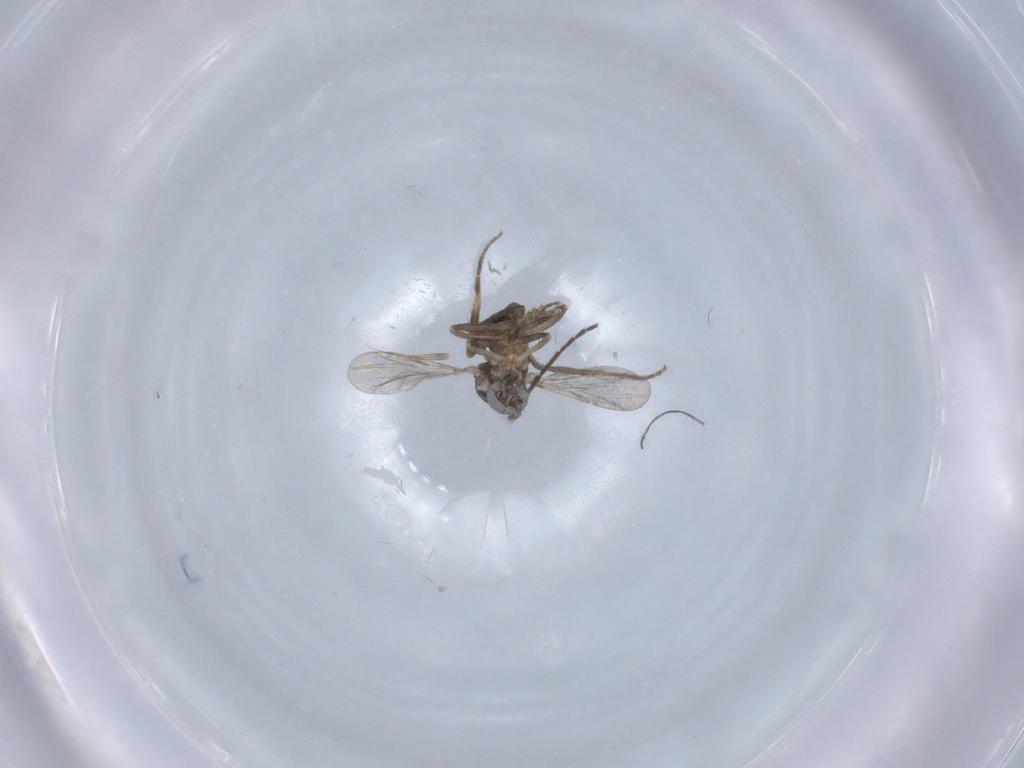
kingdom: Animalia
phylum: Arthropoda
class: Insecta
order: Diptera
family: Ceratopogonidae
